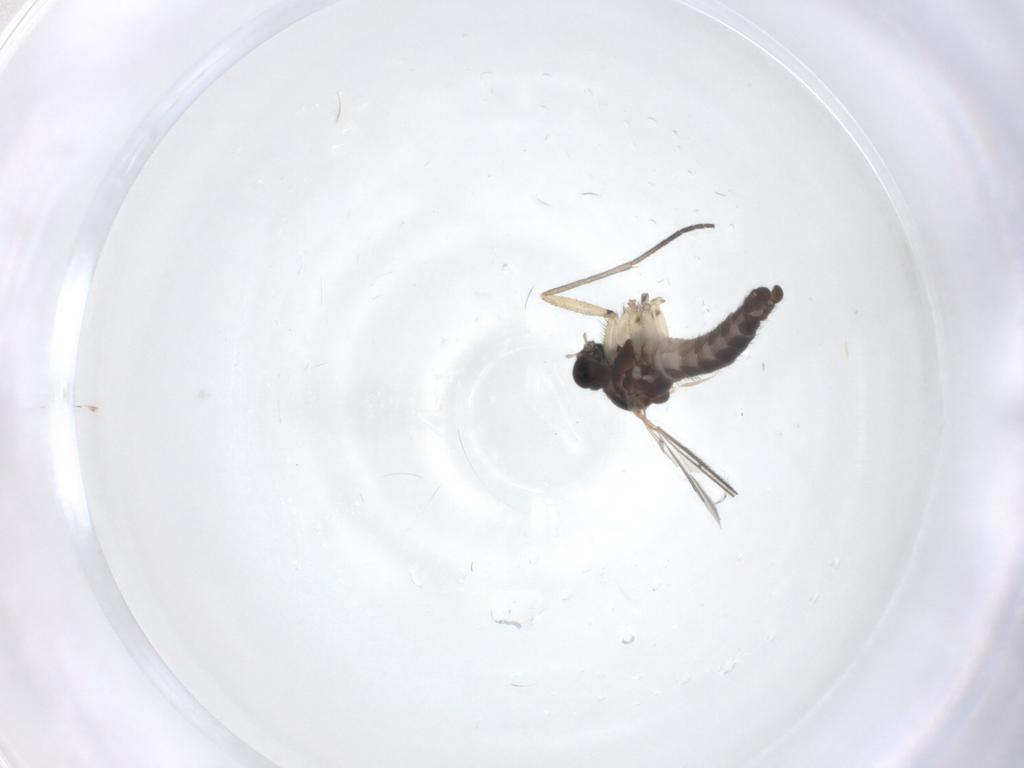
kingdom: Animalia
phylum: Arthropoda
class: Insecta
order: Diptera
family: Sciaridae
